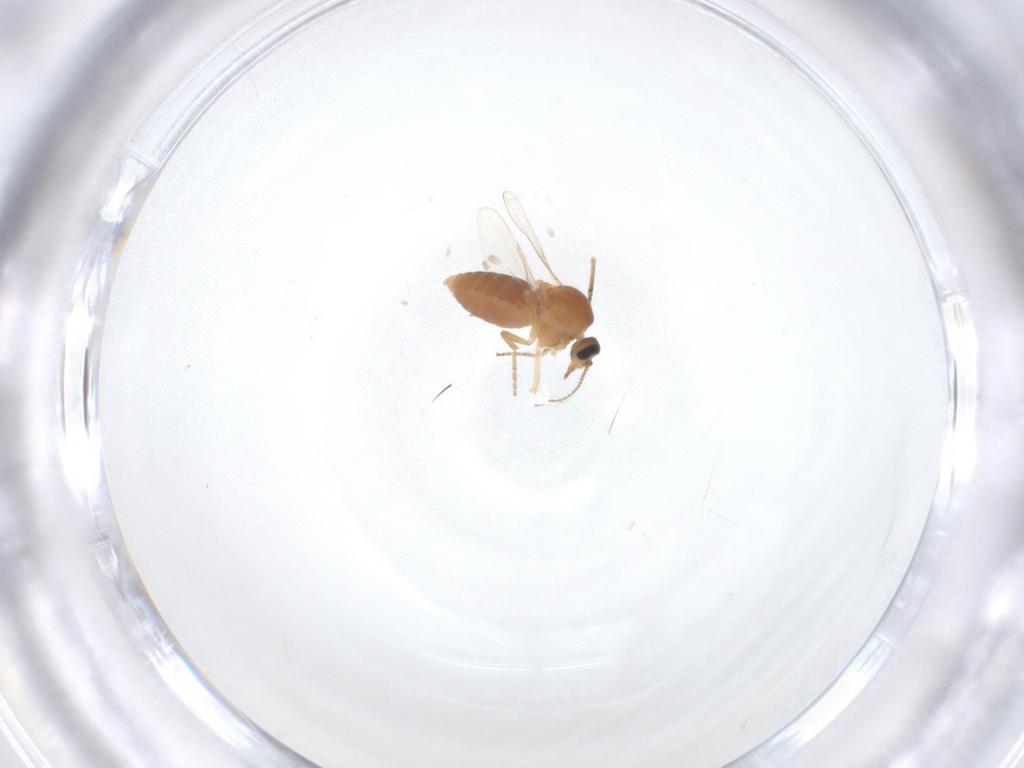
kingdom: Animalia
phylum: Arthropoda
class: Insecta
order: Diptera
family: Ceratopogonidae
